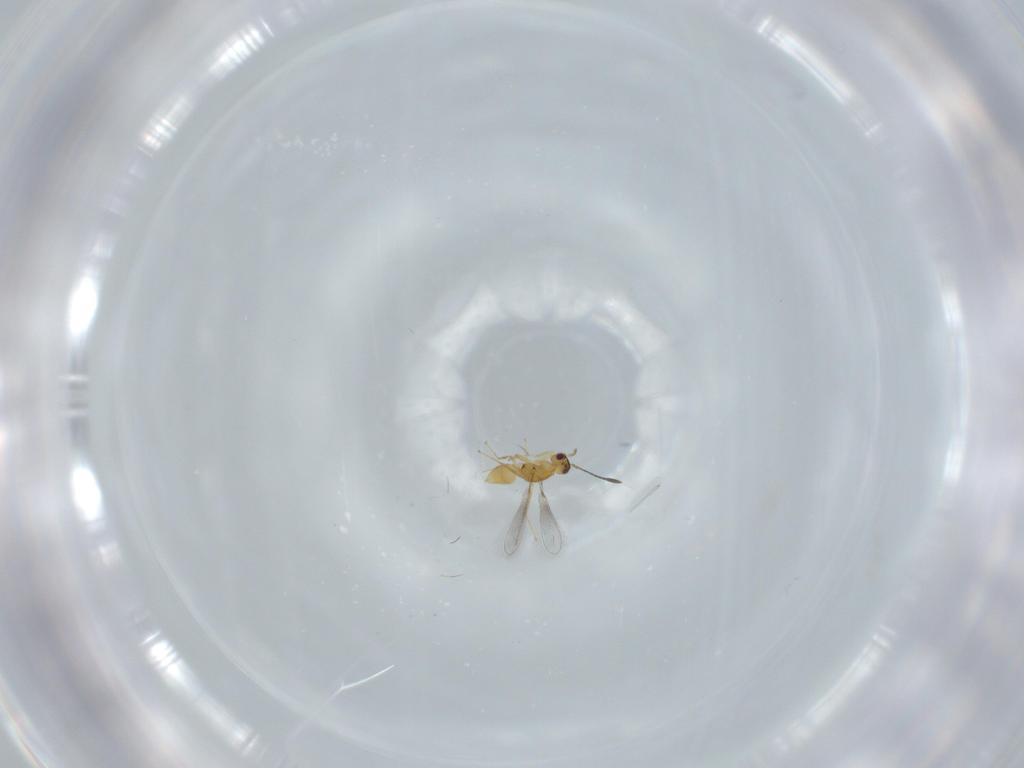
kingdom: Animalia
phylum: Arthropoda
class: Insecta
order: Hymenoptera
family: Mymaridae
